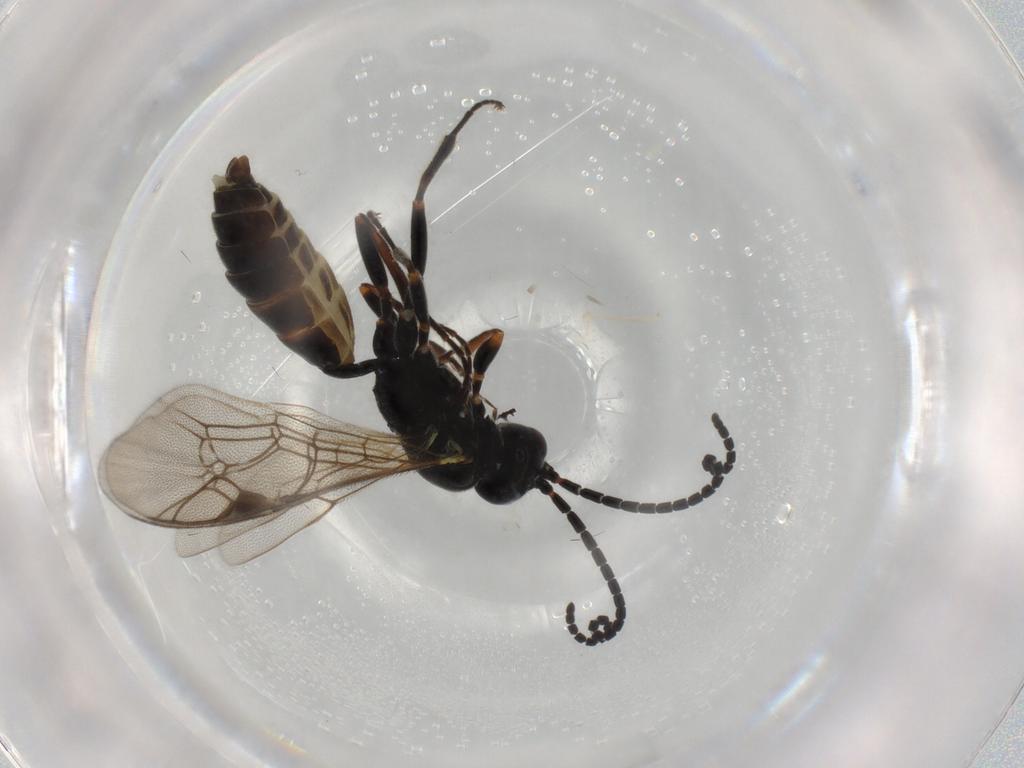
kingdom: Animalia
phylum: Arthropoda
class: Insecta
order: Hymenoptera
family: Ichneumonidae
